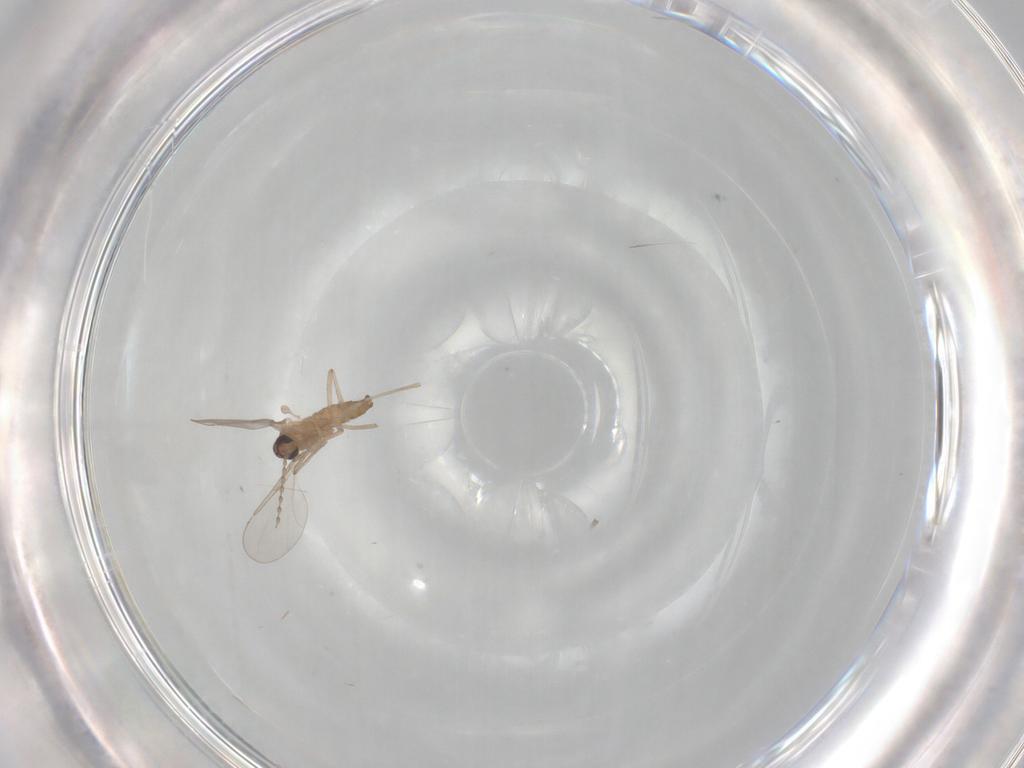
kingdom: Animalia
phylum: Arthropoda
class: Insecta
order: Diptera
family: Cecidomyiidae
